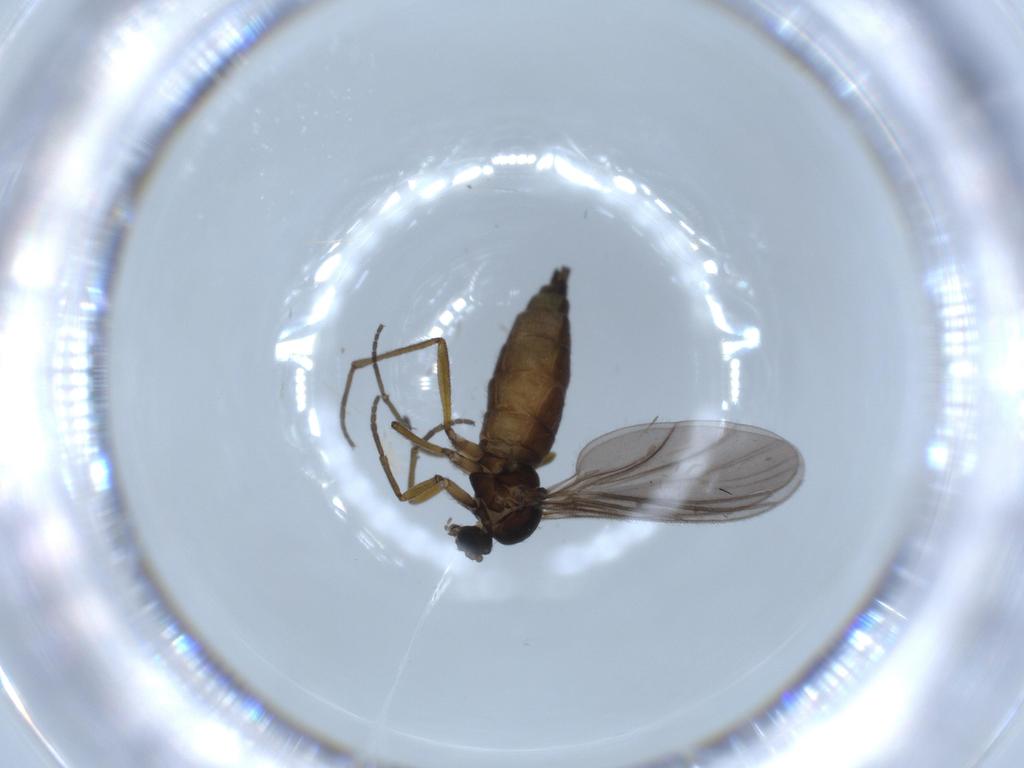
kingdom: Animalia
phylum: Arthropoda
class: Insecta
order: Diptera
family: Sciaridae
